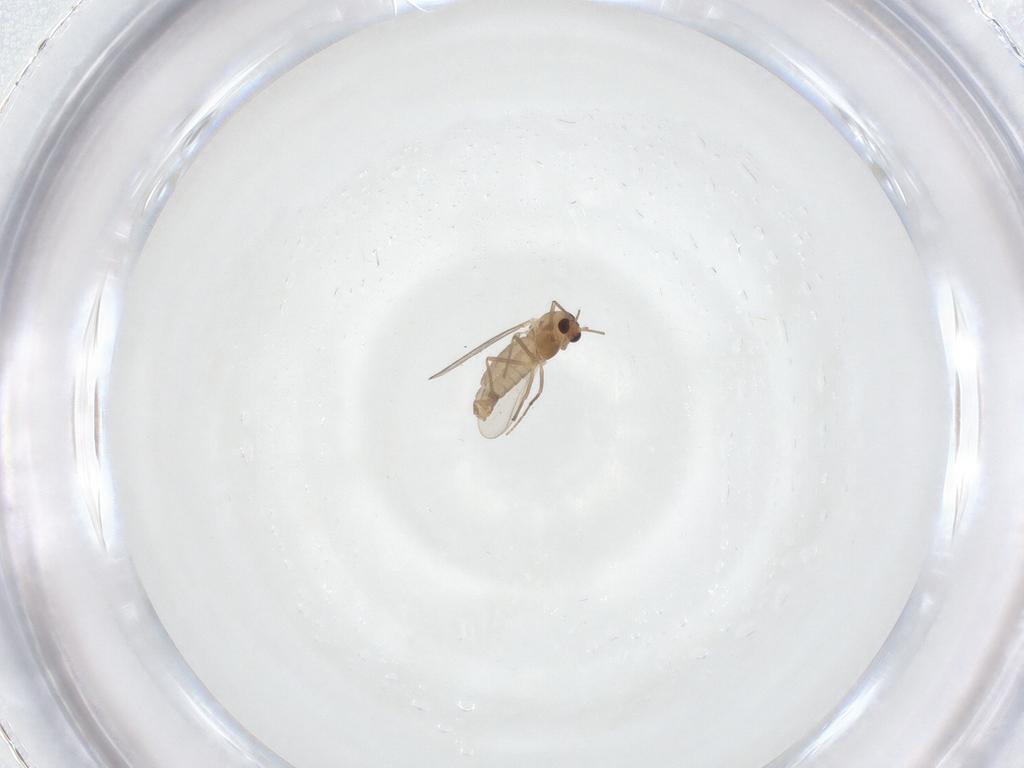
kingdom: Animalia
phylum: Arthropoda
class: Insecta
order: Diptera
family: Chironomidae
